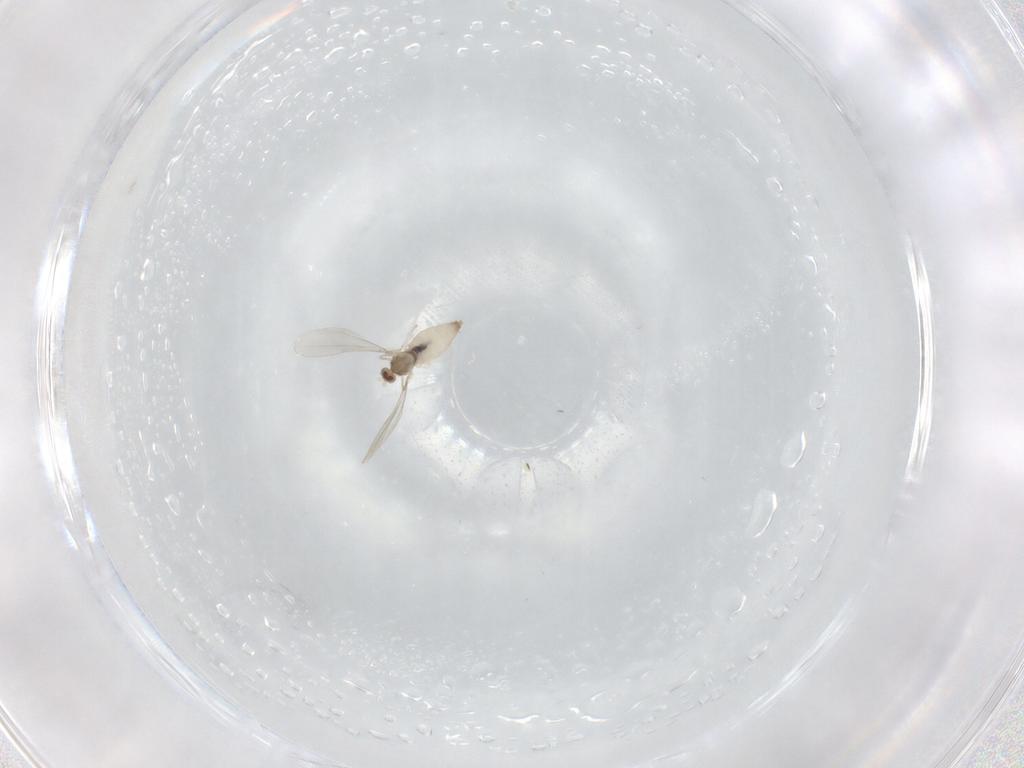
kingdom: Animalia
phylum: Arthropoda
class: Insecta
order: Diptera
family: Cecidomyiidae
